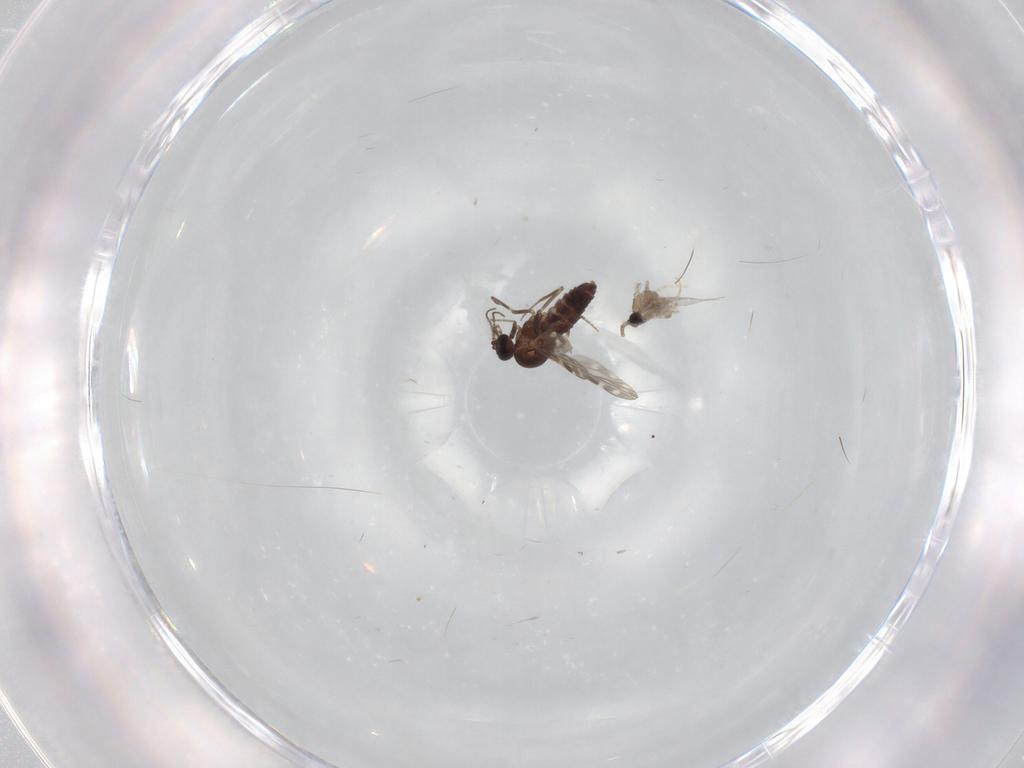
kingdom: Animalia
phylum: Arthropoda
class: Insecta
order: Diptera
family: Ceratopogonidae
